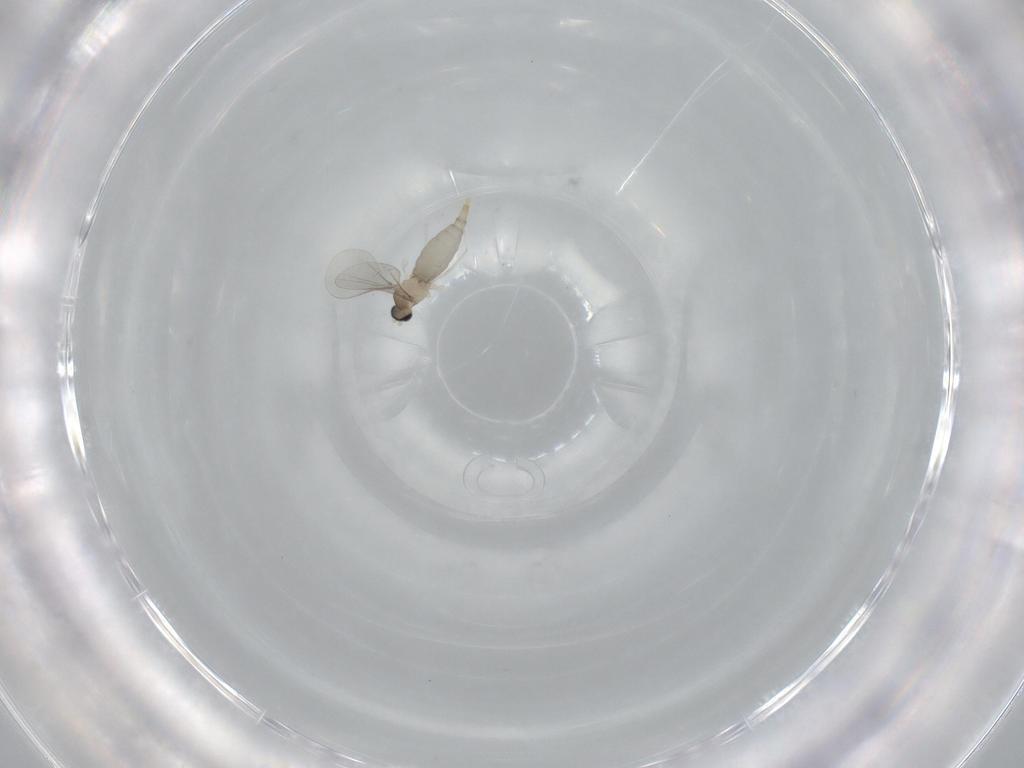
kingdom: Animalia
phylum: Arthropoda
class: Insecta
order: Diptera
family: Cecidomyiidae
